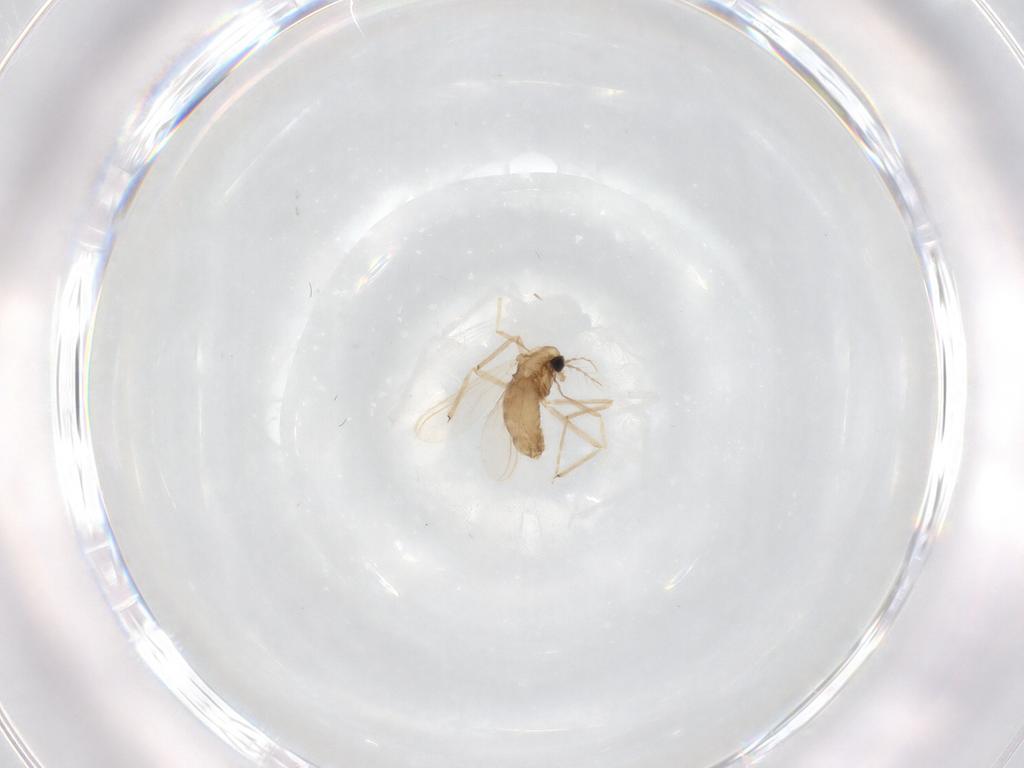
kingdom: Animalia
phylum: Arthropoda
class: Insecta
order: Diptera
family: Chironomidae
